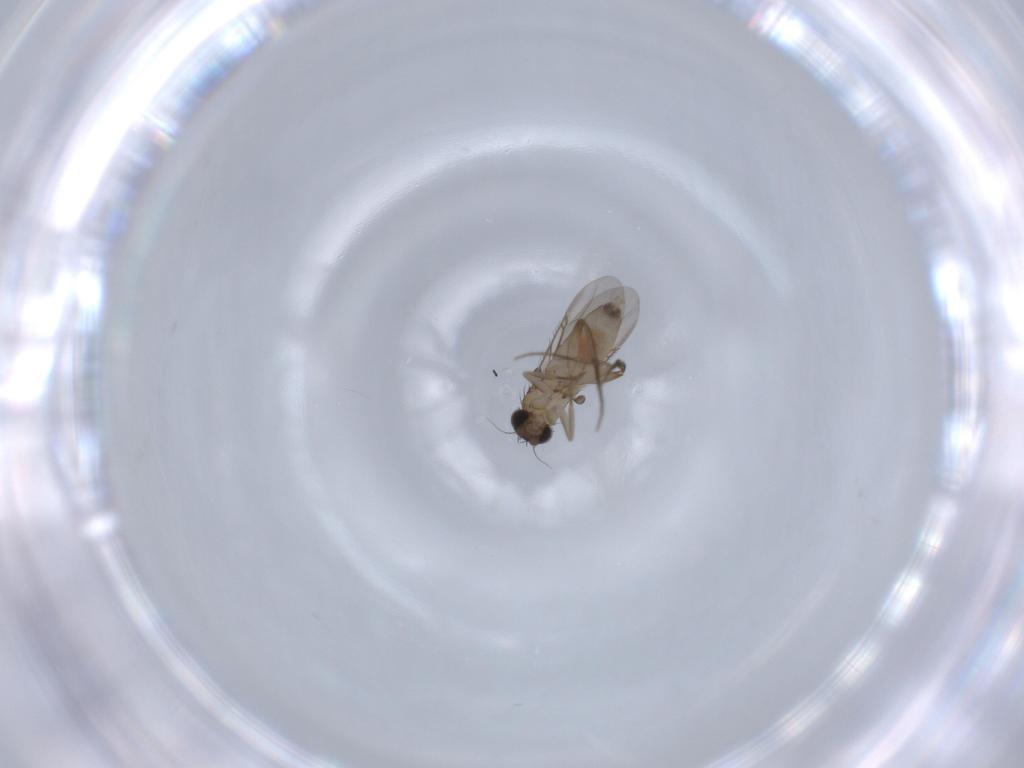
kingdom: Animalia
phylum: Arthropoda
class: Insecta
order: Diptera
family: Phoridae
